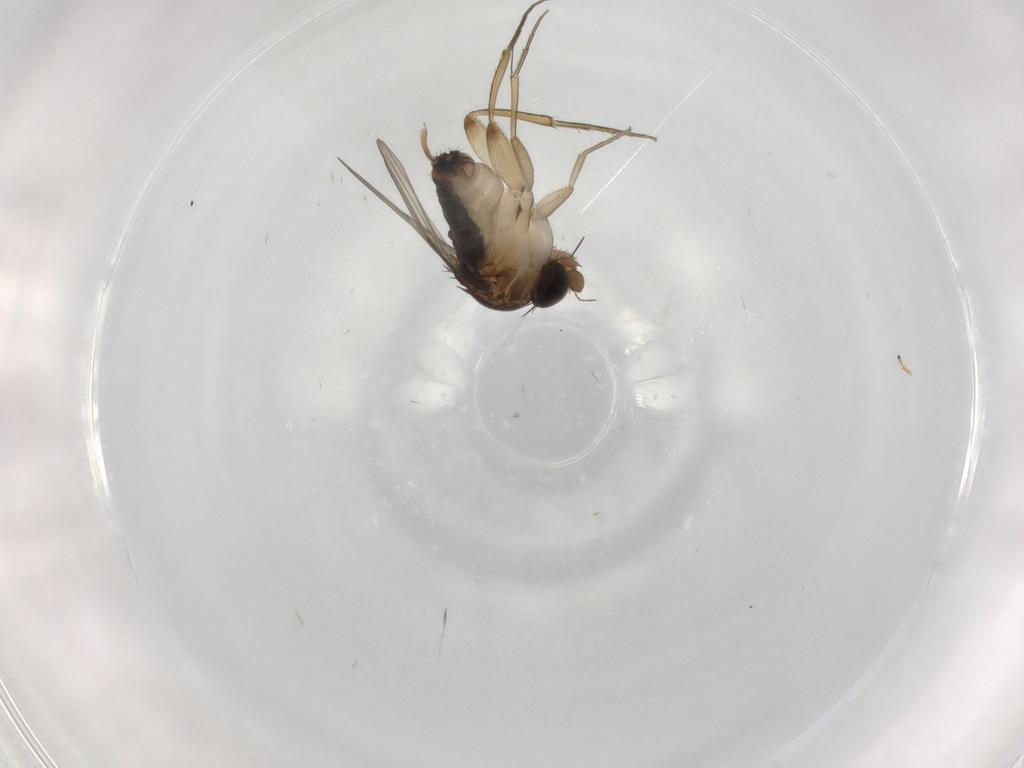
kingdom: Animalia
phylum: Arthropoda
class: Insecta
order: Diptera
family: Phoridae
